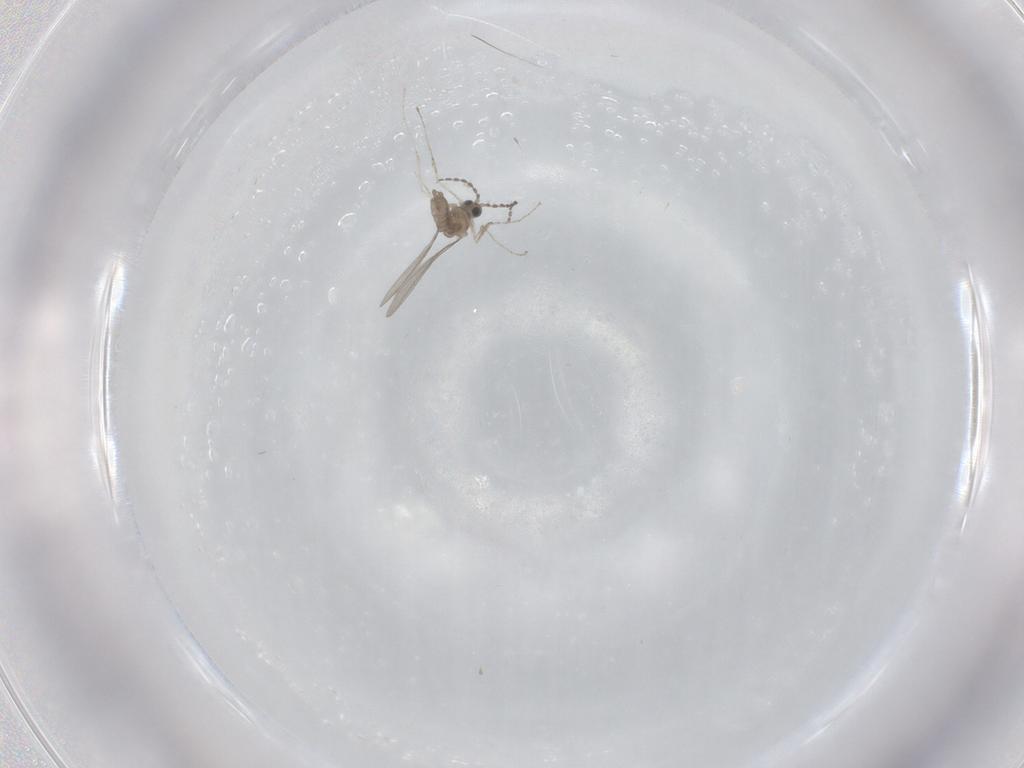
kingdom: Animalia
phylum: Arthropoda
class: Insecta
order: Diptera
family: Cecidomyiidae
